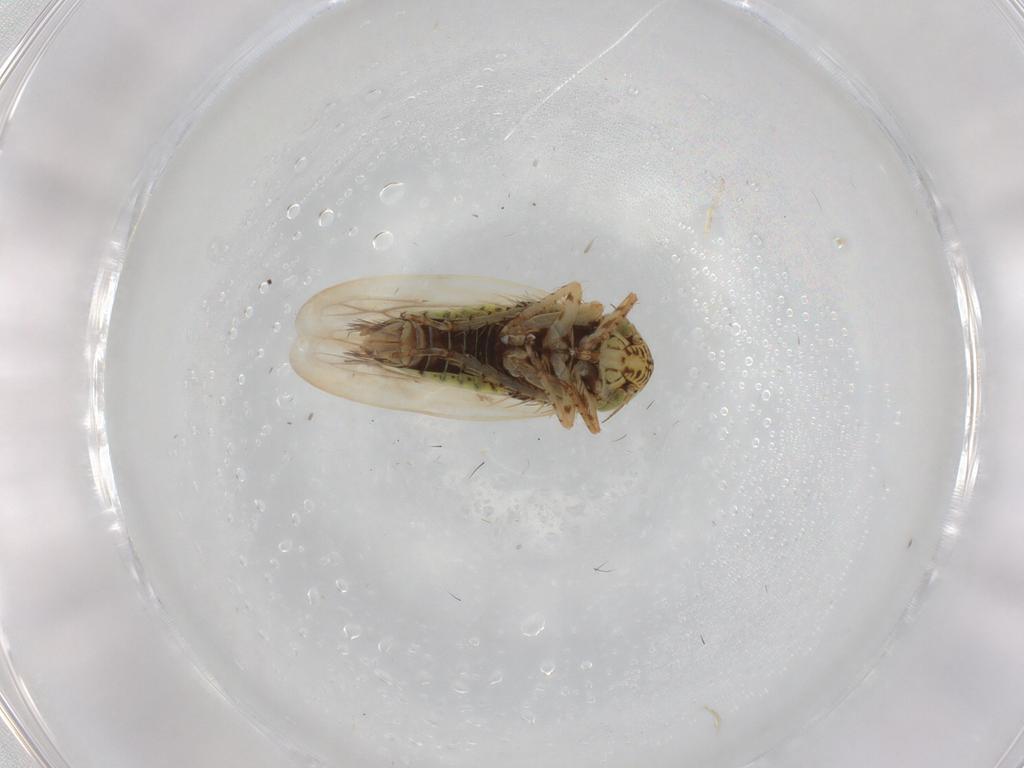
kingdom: Animalia
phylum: Arthropoda
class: Insecta
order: Hemiptera
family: Cicadellidae
